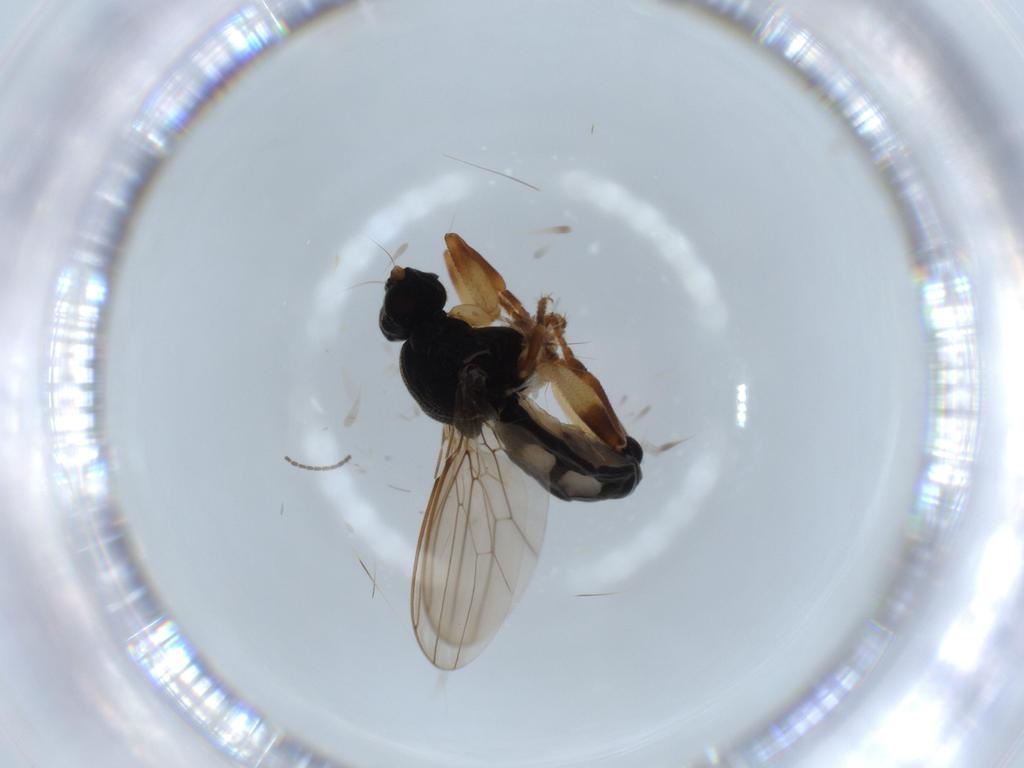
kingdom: Animalia
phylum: Arthropoda
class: Insecta
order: Diptera
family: Sphaeroceridae
